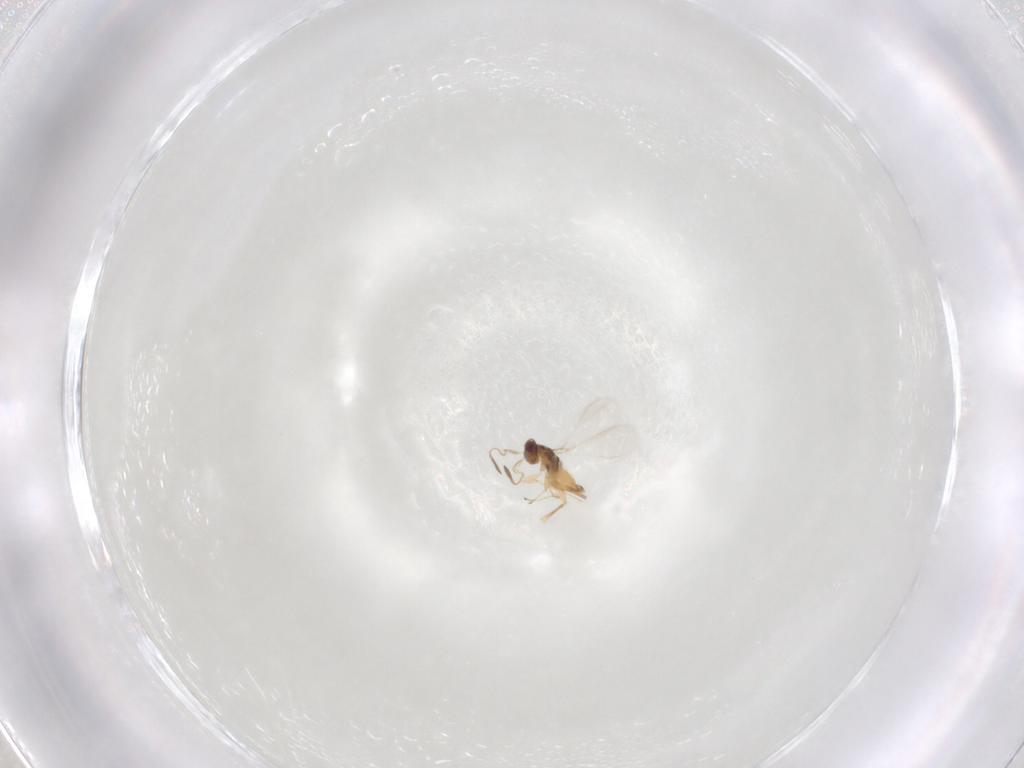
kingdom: Animalia
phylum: Arthropoda
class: Insecta
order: Hymenoptera
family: Mymaridae
